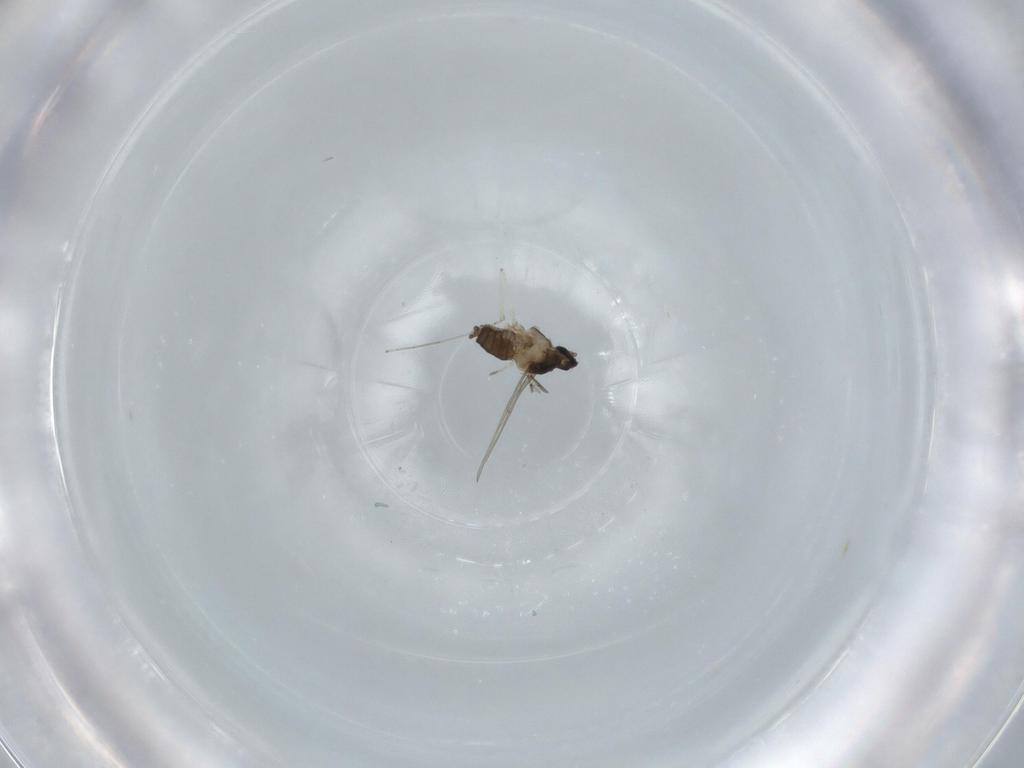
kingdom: Animalia
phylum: Arthropoda
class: Insecta
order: Diptera
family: Cecidomyiidae
